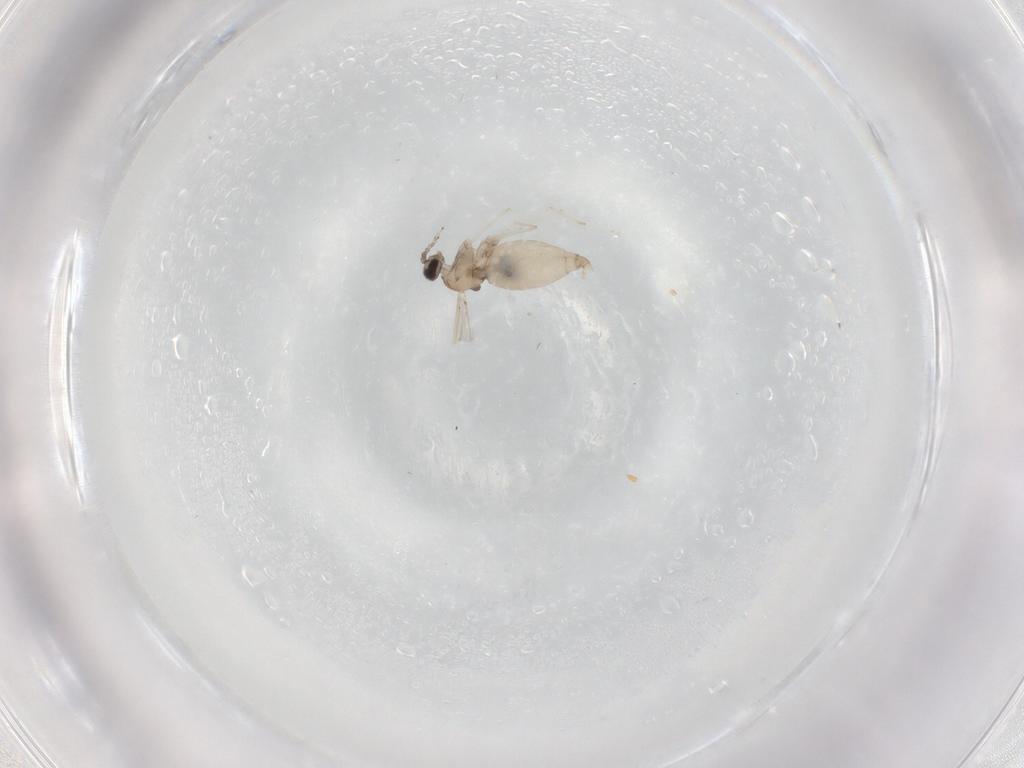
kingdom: Animalia
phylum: Arthropoda
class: Insecta
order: Diptera
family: Cecidomyiidae
